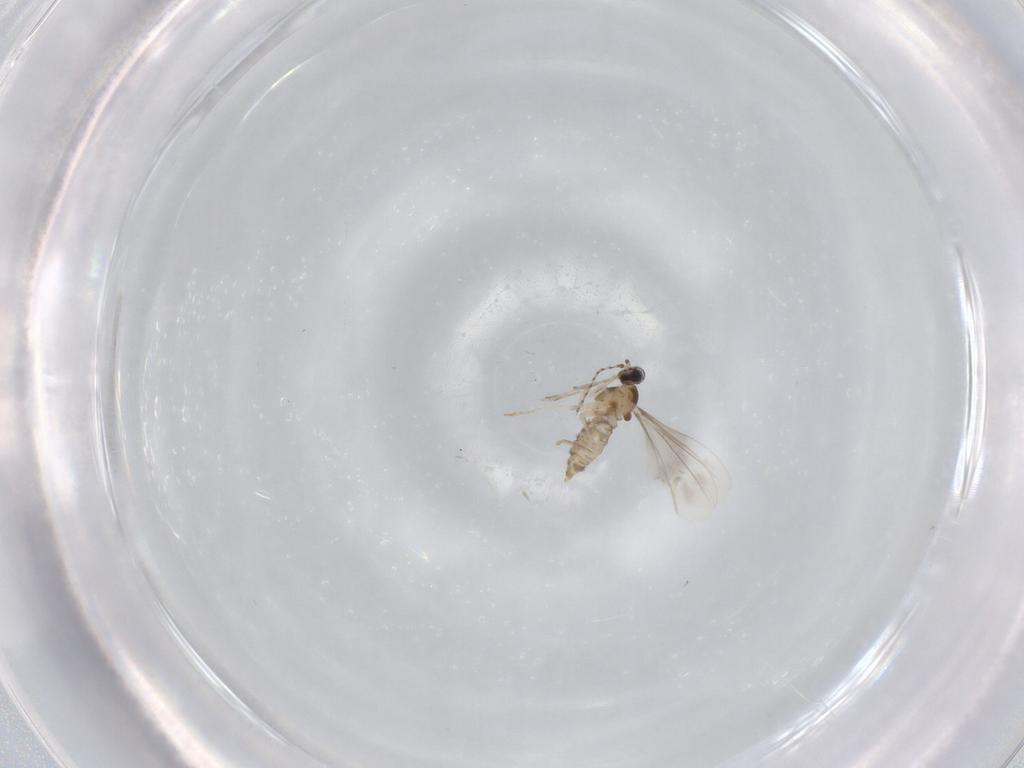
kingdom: Animalia
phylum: Arthropoda
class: Insecta
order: Diptera
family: Cecidomyiidae
